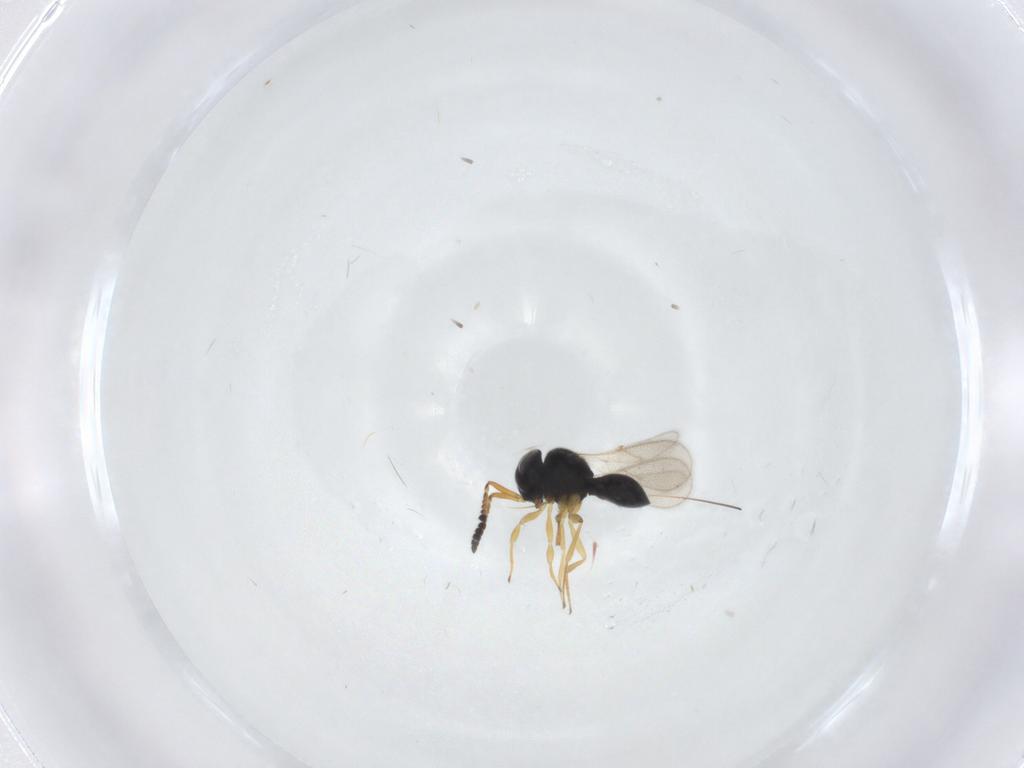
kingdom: Animalia
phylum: Arthropoda
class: Insecta
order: Hymenoptera
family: Scelionidae
